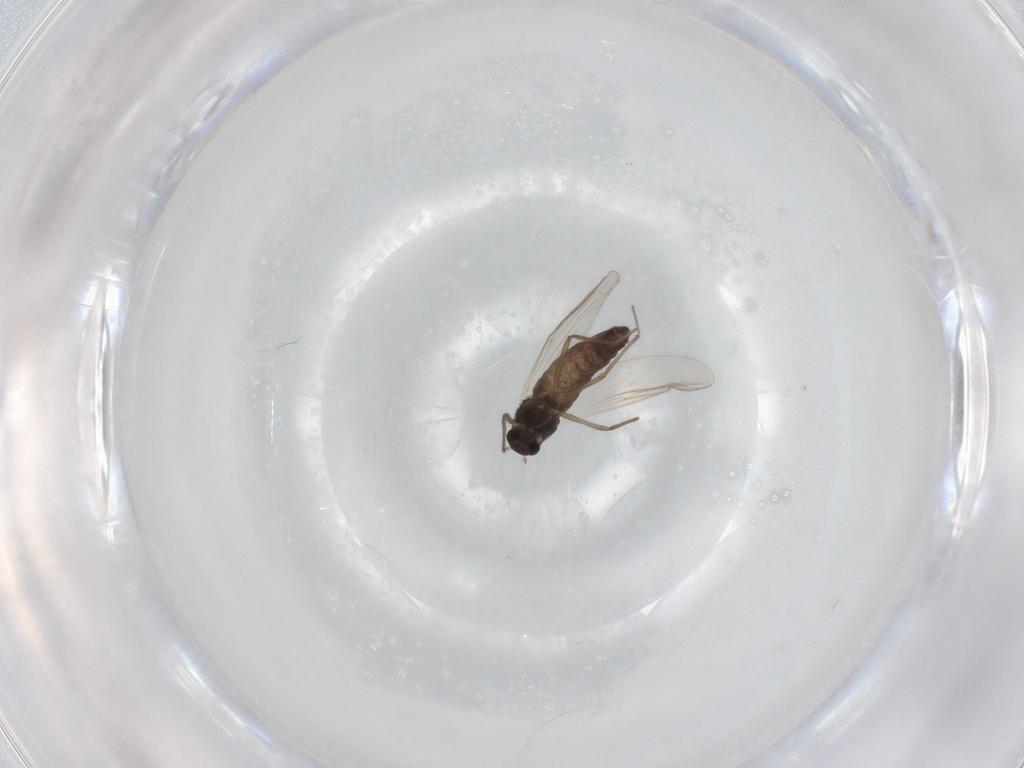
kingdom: Animalia
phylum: Arthropoda
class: Insecta
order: Diptera
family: Chironomidae
